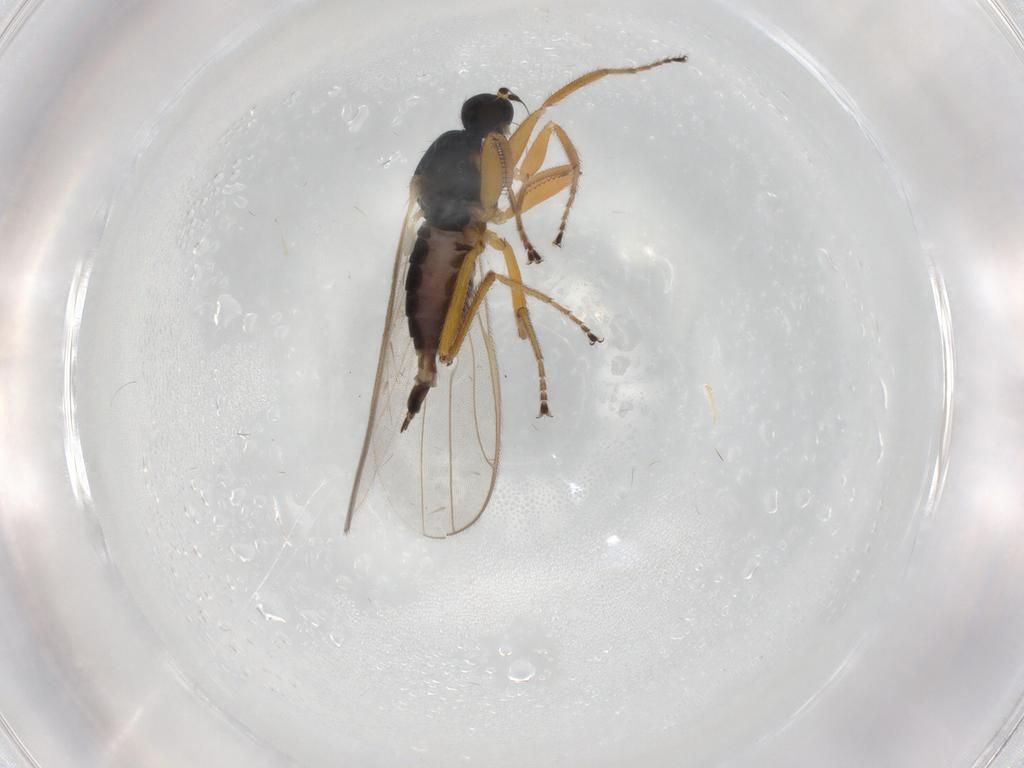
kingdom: Animalia
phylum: Arthropoda
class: Insecta
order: Diptera
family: Hybotidae
